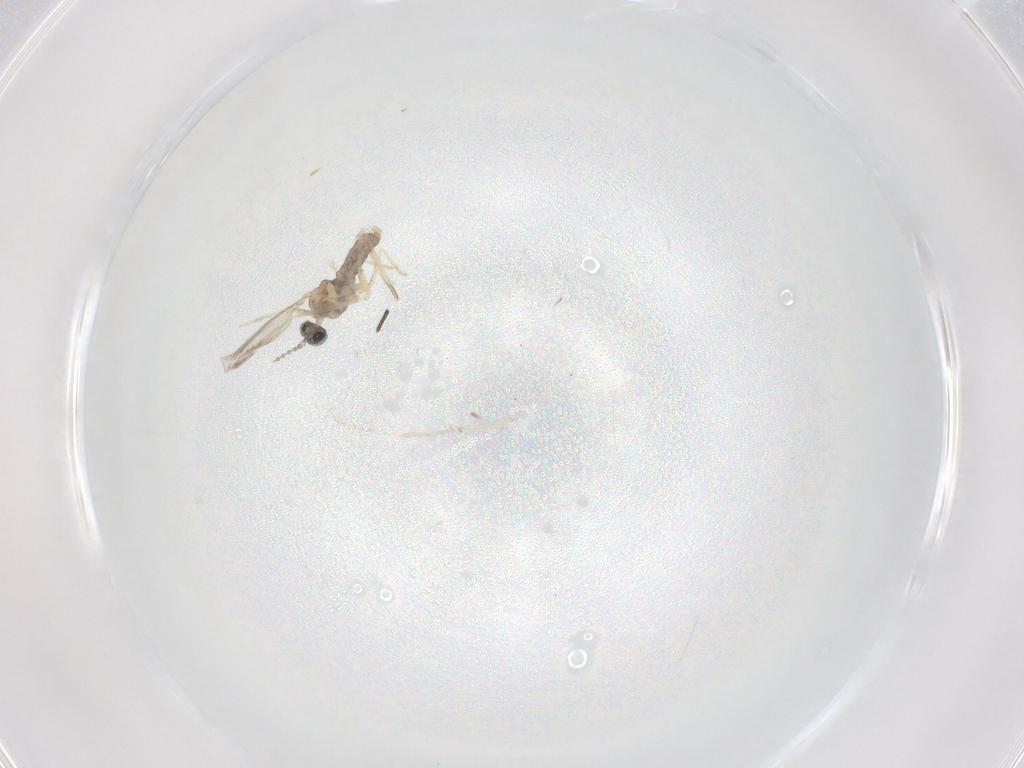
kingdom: Animalia
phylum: Arthropoda
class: Insecta
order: Diptera
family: Cecidomyiidae
